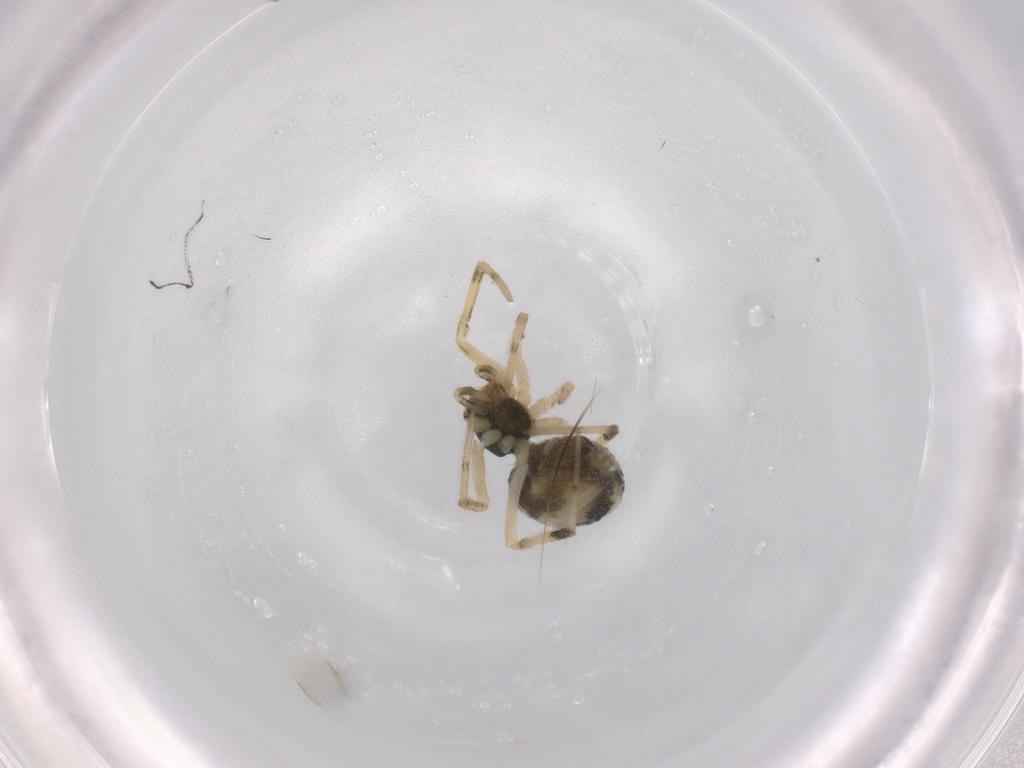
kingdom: Animalia
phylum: Arthropoda
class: Arachnida
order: Araneae
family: Theridiidae
